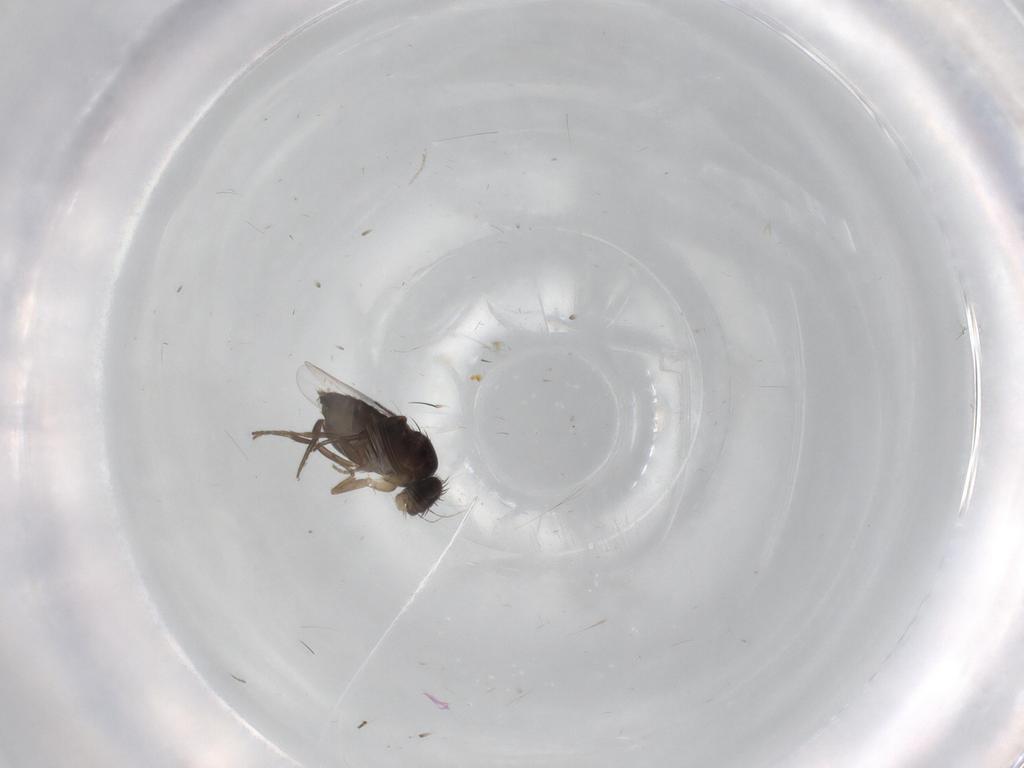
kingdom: Animalia
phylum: Arthropoda
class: Insecta
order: Diptera
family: Phoridae
